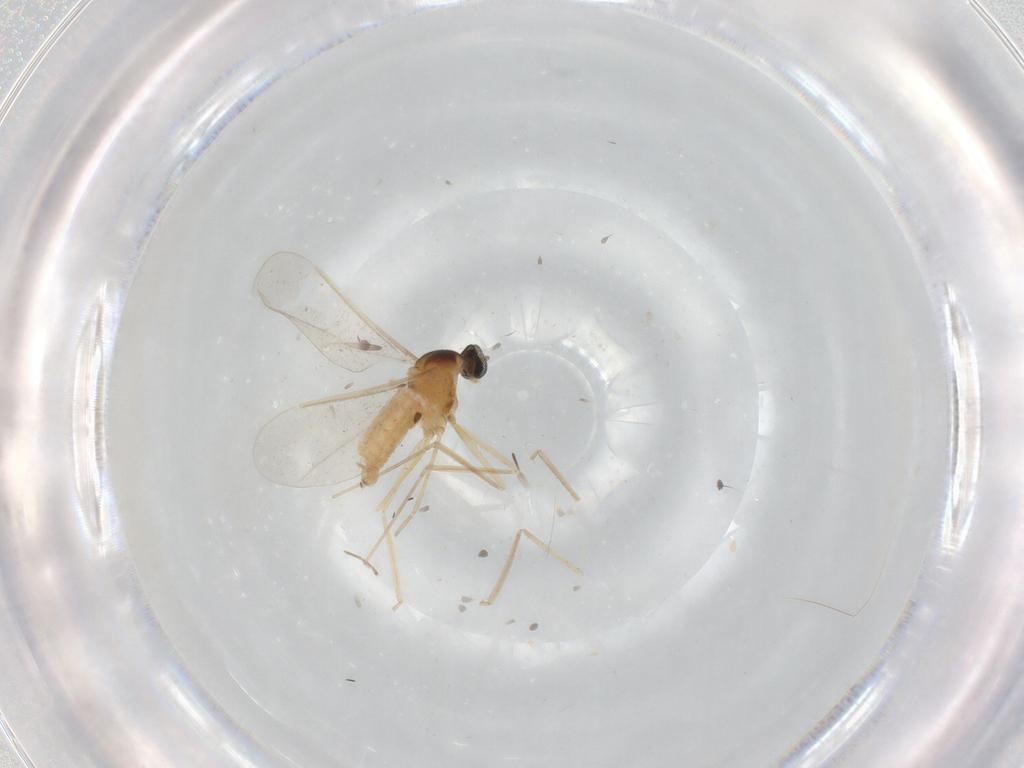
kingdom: Animalia
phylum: Arthropoda
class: Insecta
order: Diptera
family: Cecidomyiidae
